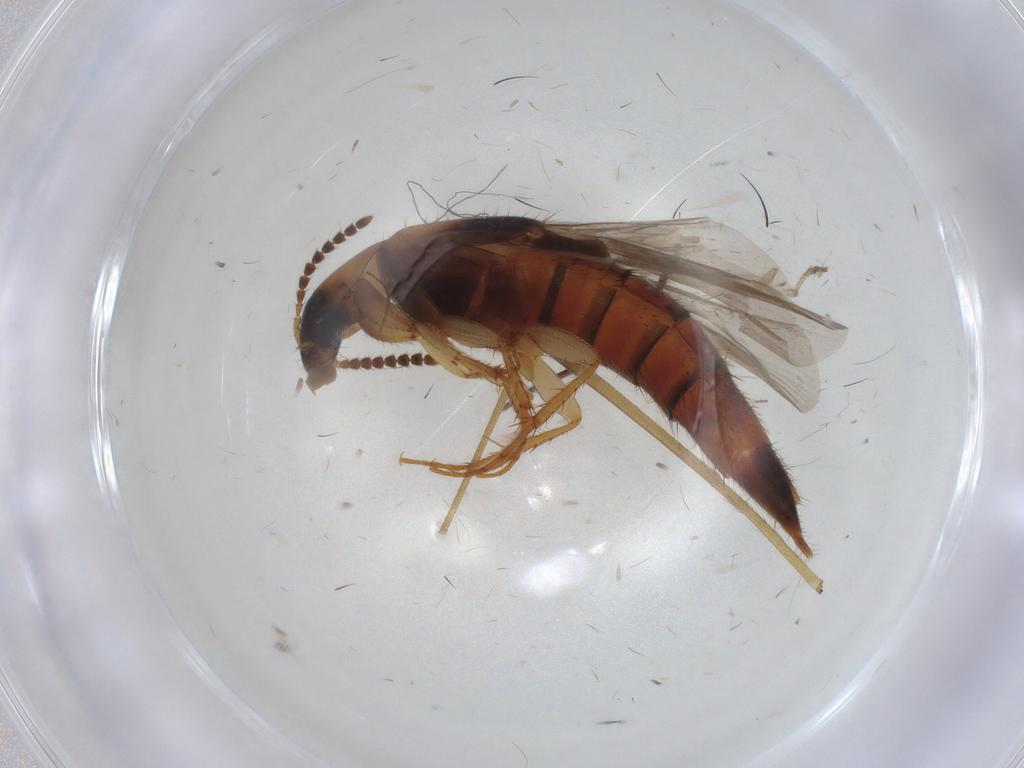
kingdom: Animalia
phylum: Arthropoda
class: Insecta
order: Coleoptera
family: Staphylinidae
